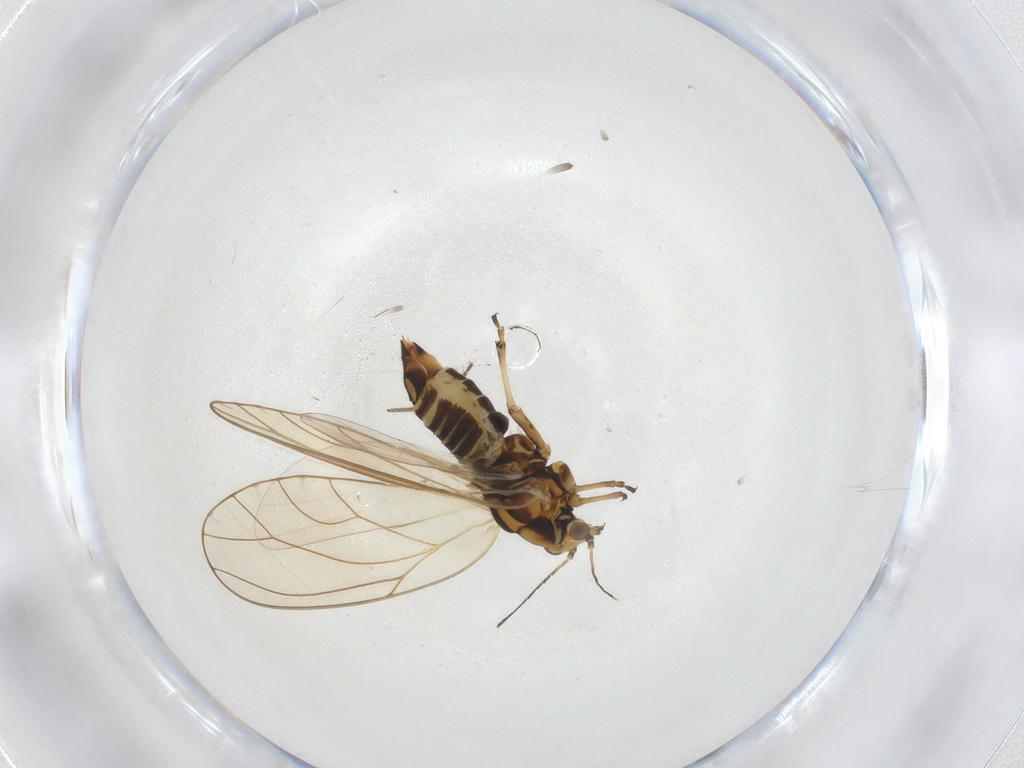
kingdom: Animalia
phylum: Arthropoda
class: Insecta
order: Hemiptera
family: Triozidae
